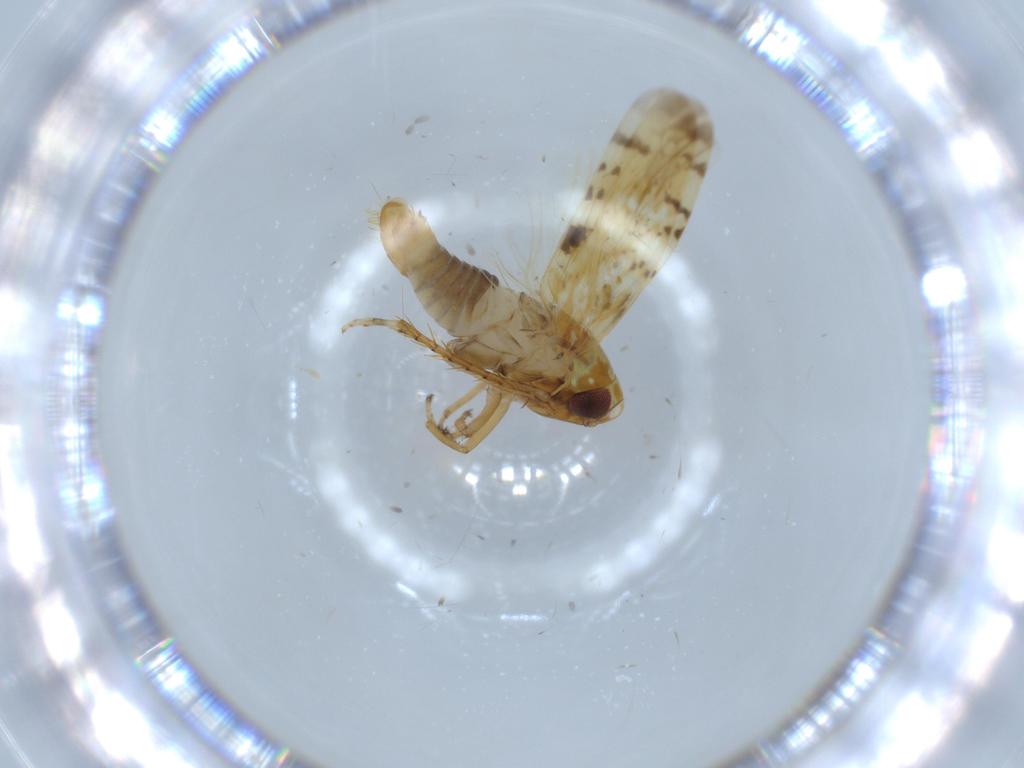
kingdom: Animalia
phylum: Arthropoda
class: Insecta
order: Hemiptera
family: Cicadellidae
